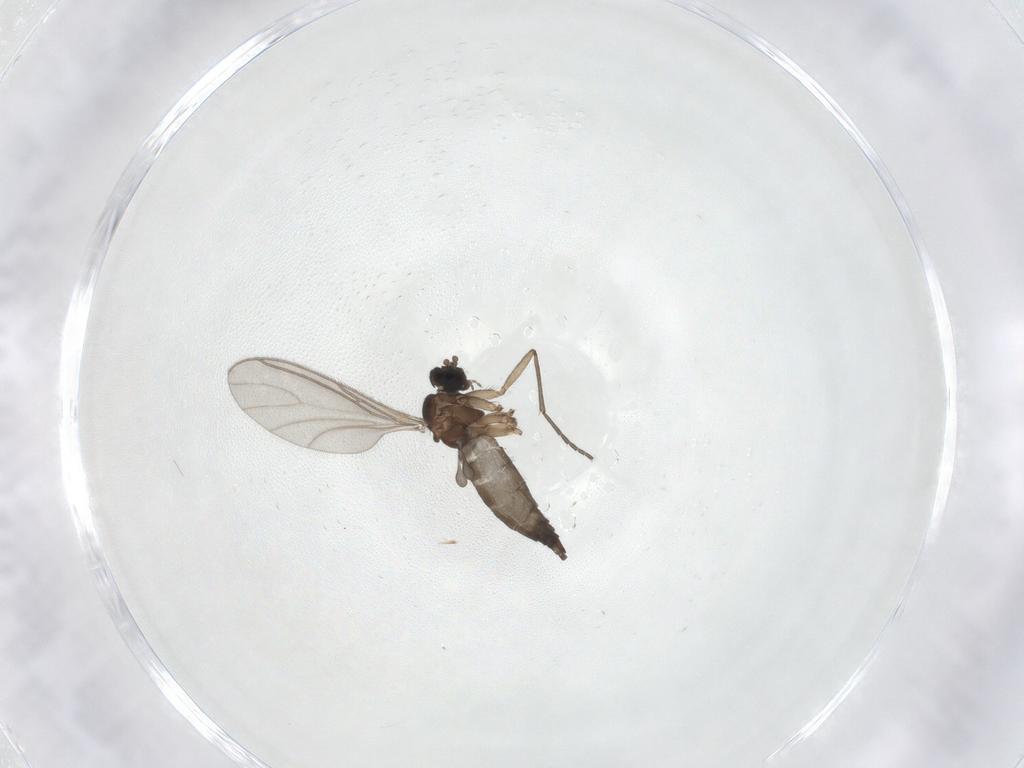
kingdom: Animalia
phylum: Arthropoda
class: Insecta
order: Diptera
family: Sciaridae
